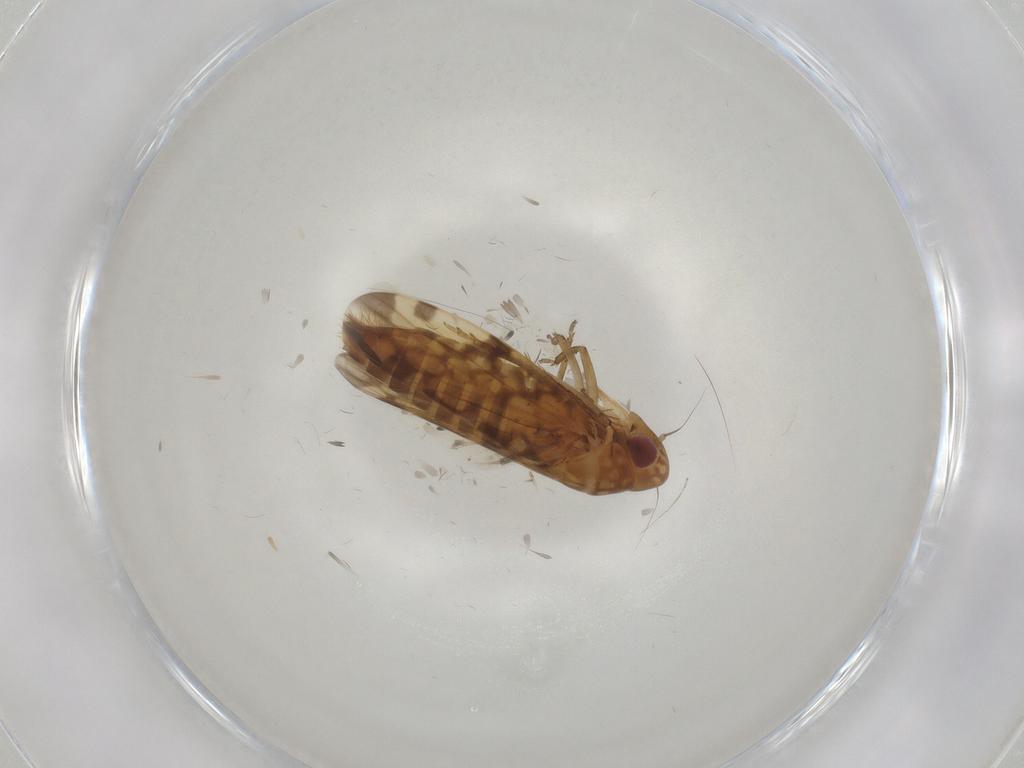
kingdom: Animalia
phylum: Arthropoda
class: Insecta
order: Hemiptera
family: Cicadellidae
